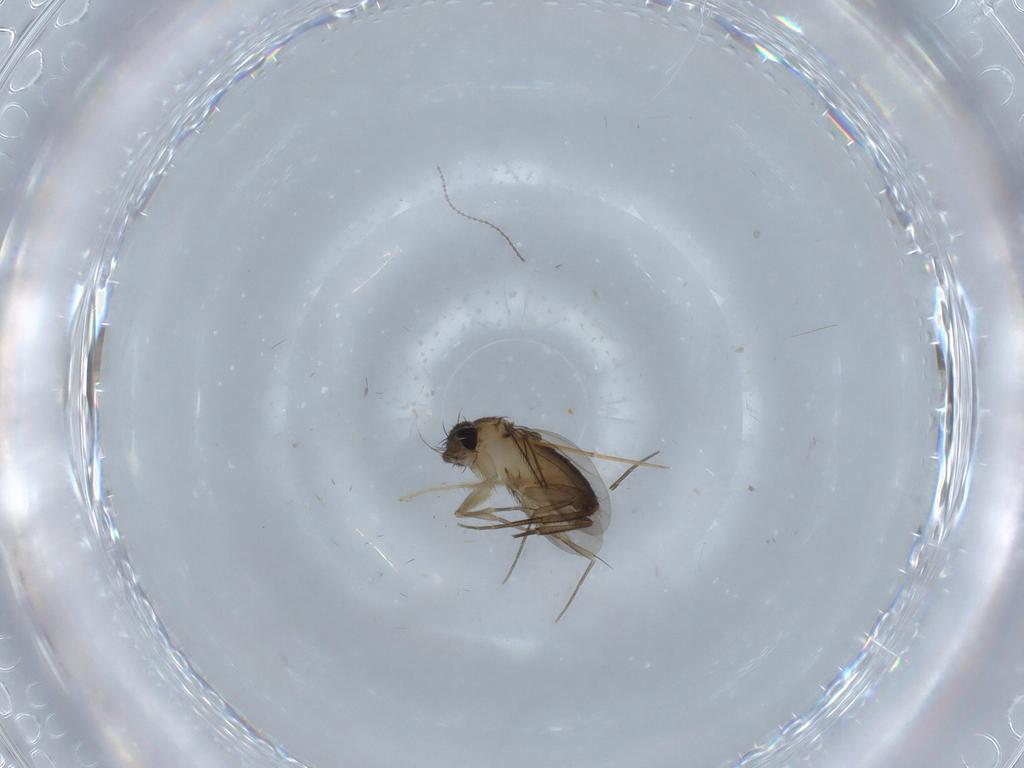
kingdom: Animalia
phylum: Arthropoda
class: Insecta
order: Diptera
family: Cecidomyiidae
